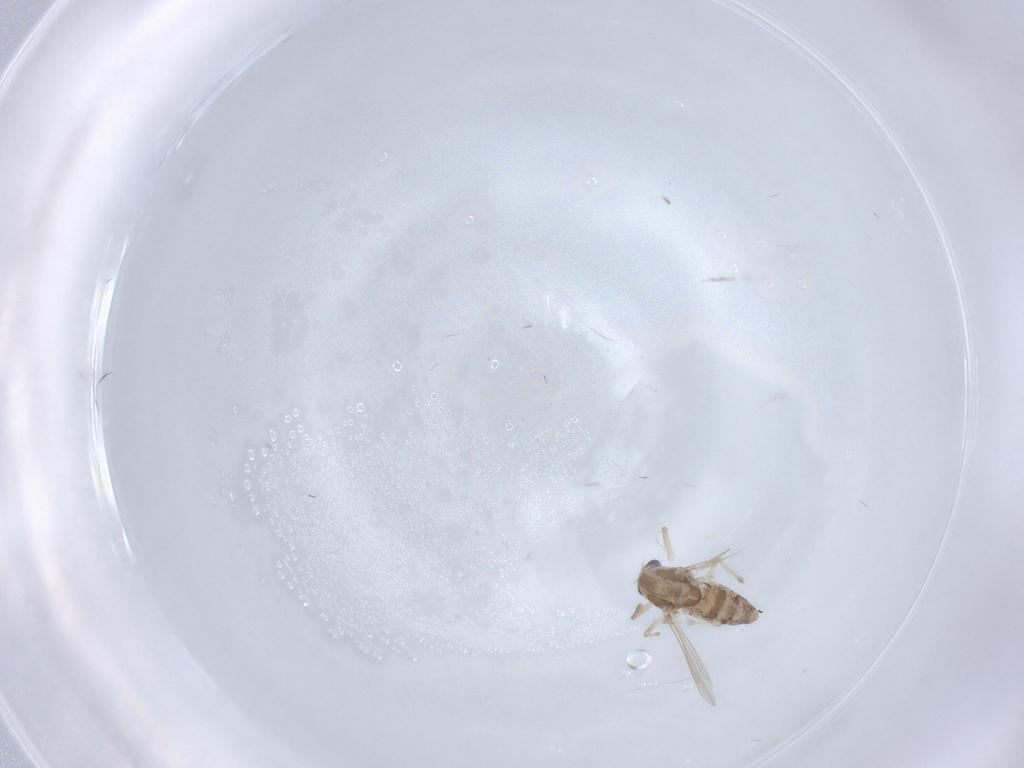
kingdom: Animalia
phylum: Arthropoda
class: Insecta
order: Diptera
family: Chironomidae
